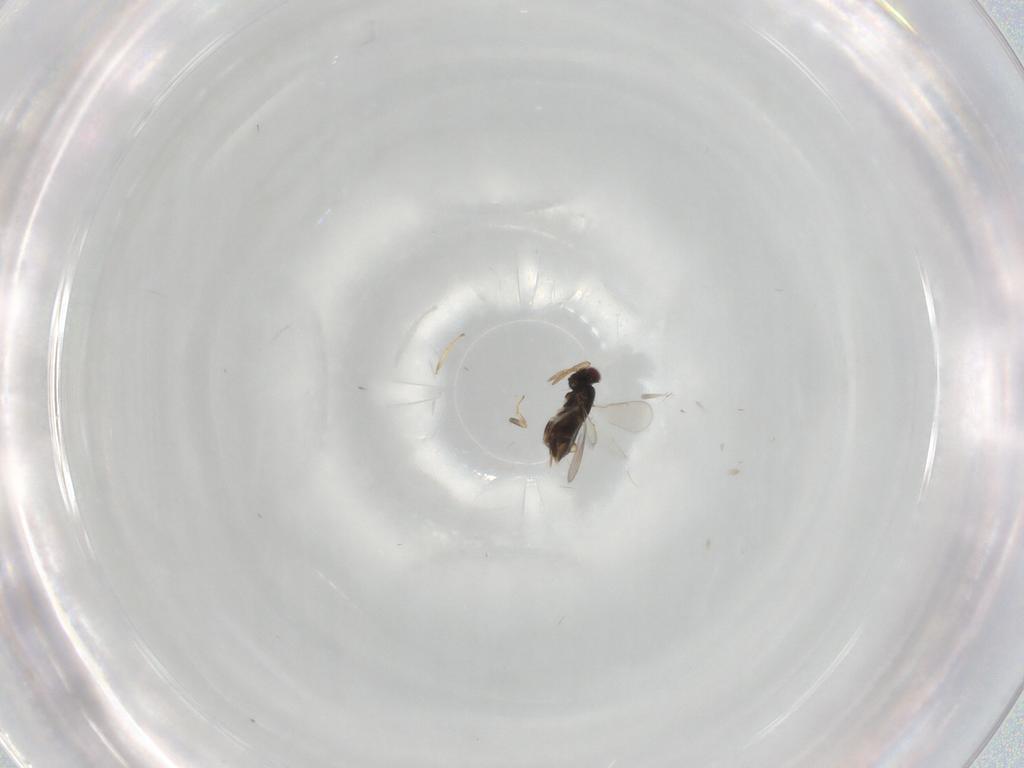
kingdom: Animalia
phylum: Arthropoda
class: Insecta
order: Hymenoptera
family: Aphelinidae
